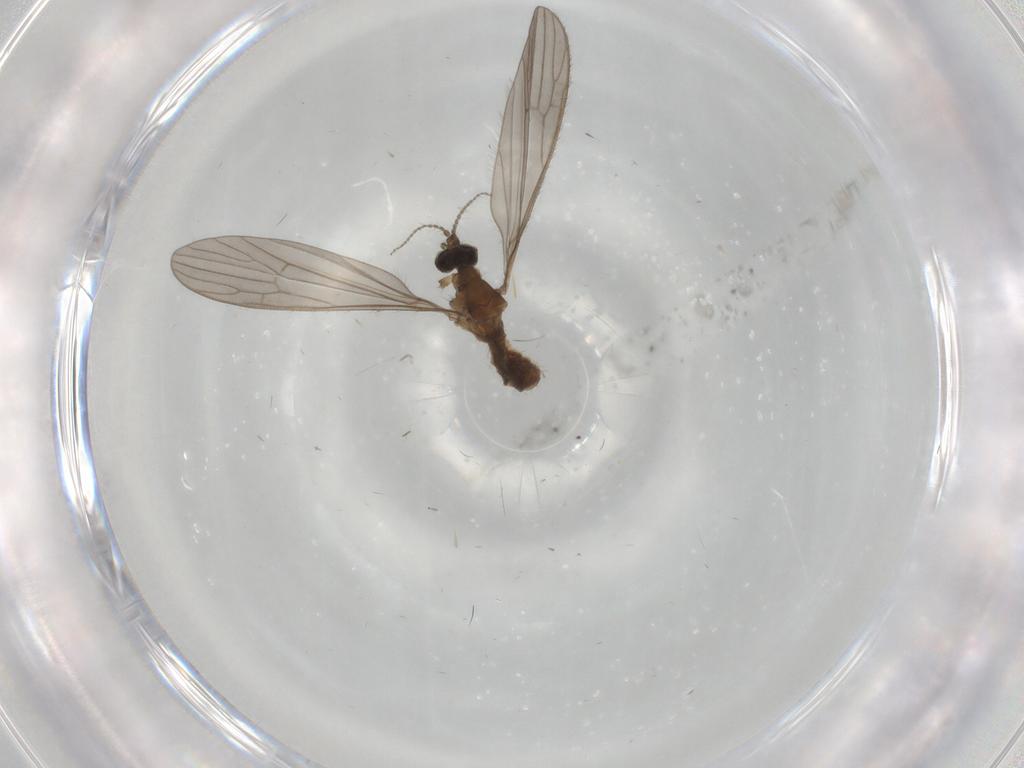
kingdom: Animalia
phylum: Arthropoda
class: Insecta
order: Diptera
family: Limoniidae
